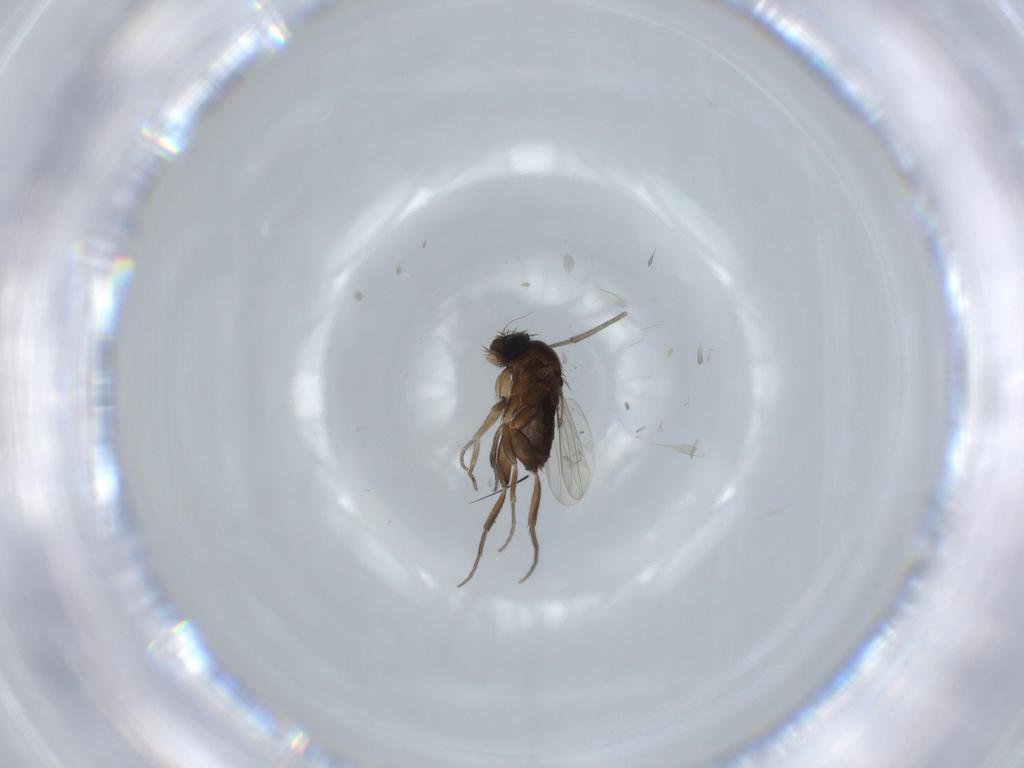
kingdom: Animalia
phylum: Arthropoda
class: Insecta
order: Diptera
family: Phoridae
